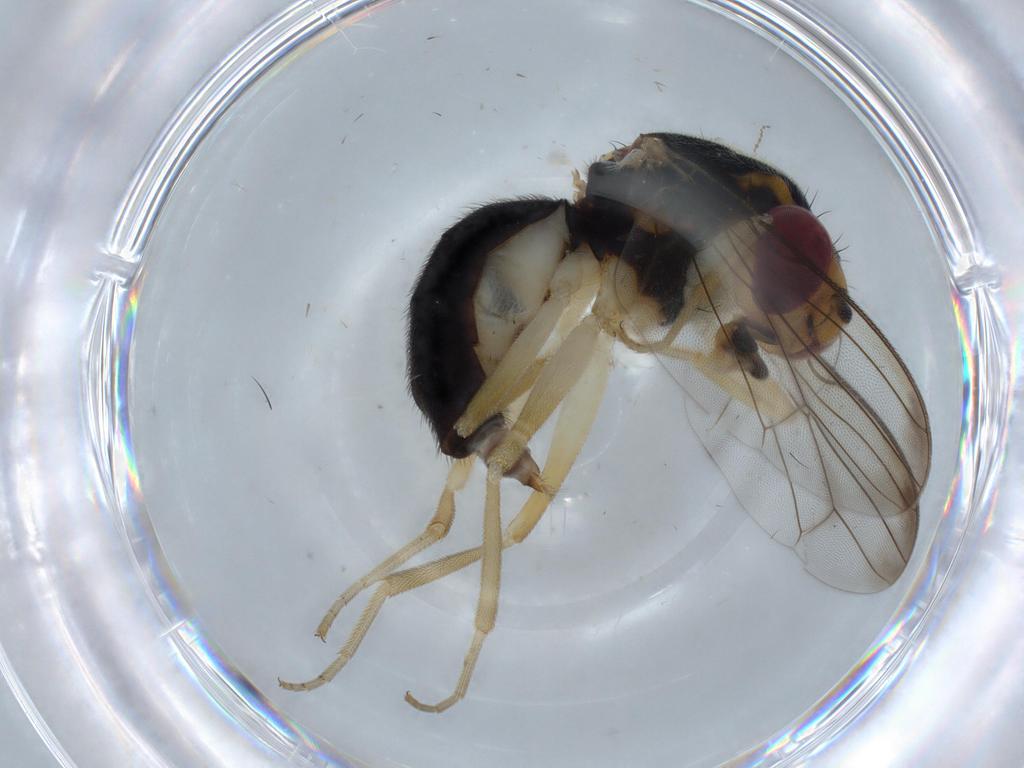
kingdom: Animalia
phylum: Arthropoda
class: Insecta
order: Diptera
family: Psilidae
